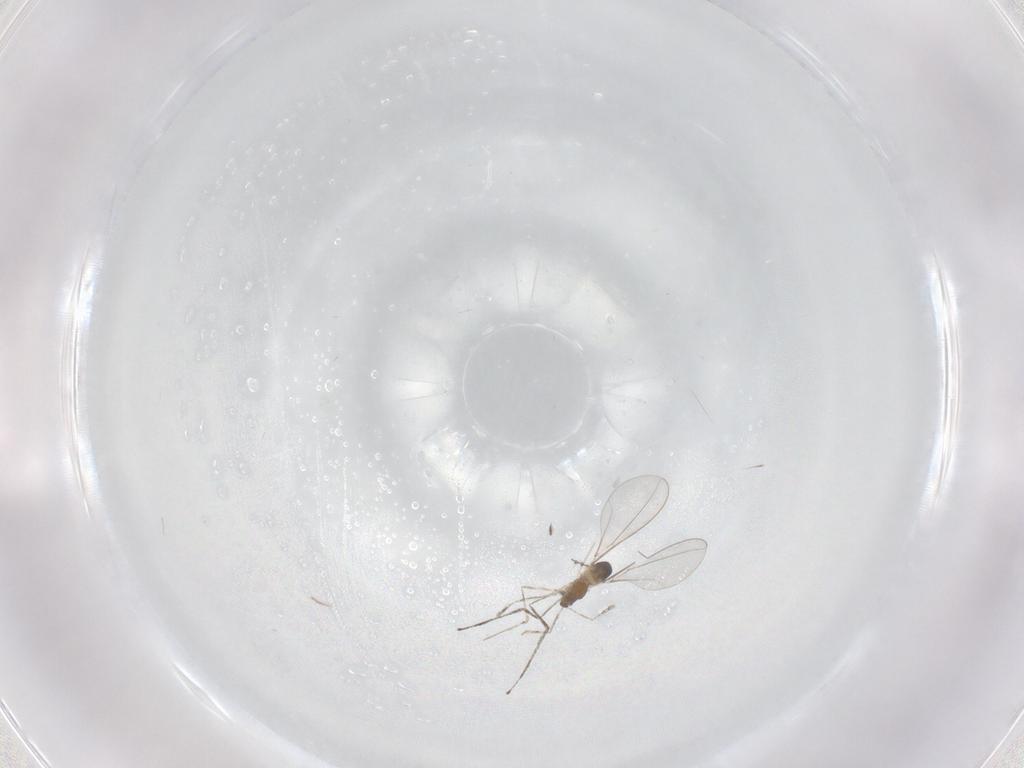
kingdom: Animalia
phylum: Arthropoda
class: Insecta
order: Diptera
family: Cecidomyiidae
